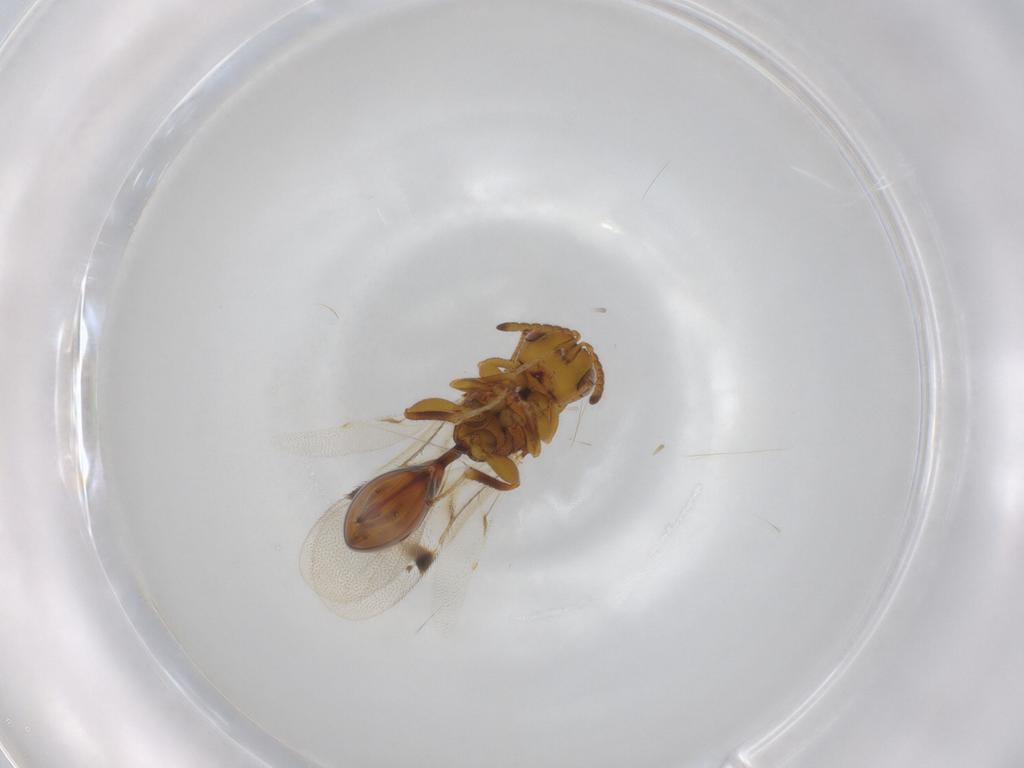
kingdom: Animalia
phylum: Arthropoda
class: Insecta
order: Hymenoptera
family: Eurytomidae
